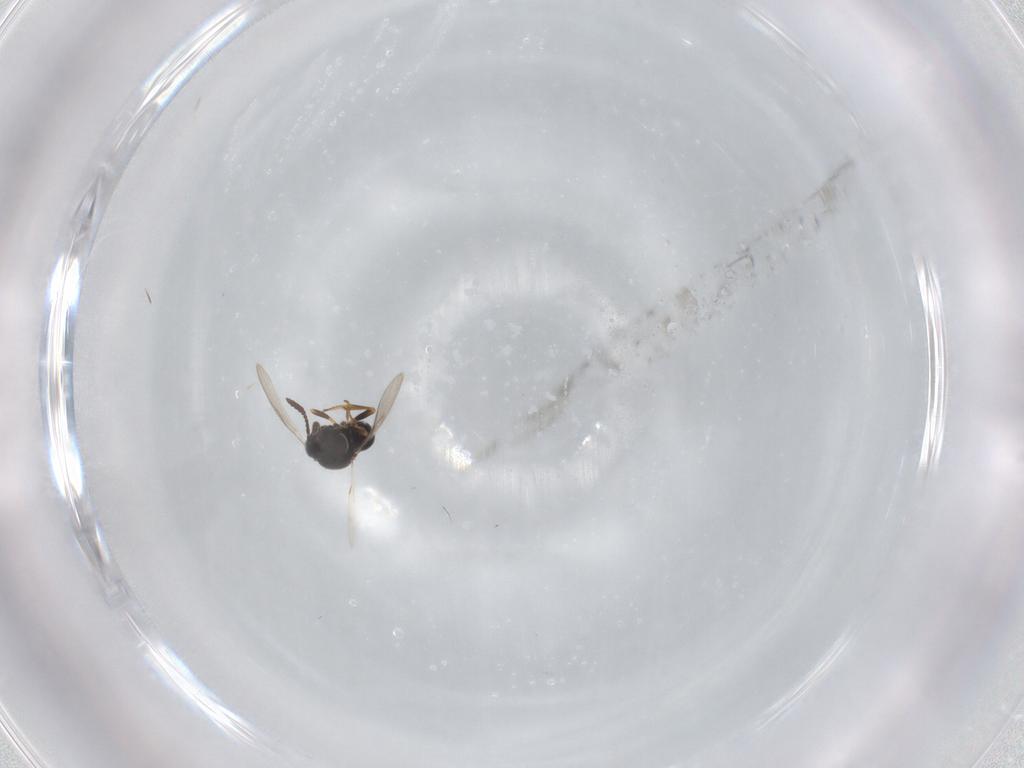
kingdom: Animalia
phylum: Arthropoda
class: Insecta
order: Hymenoptera
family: Scelionidae
